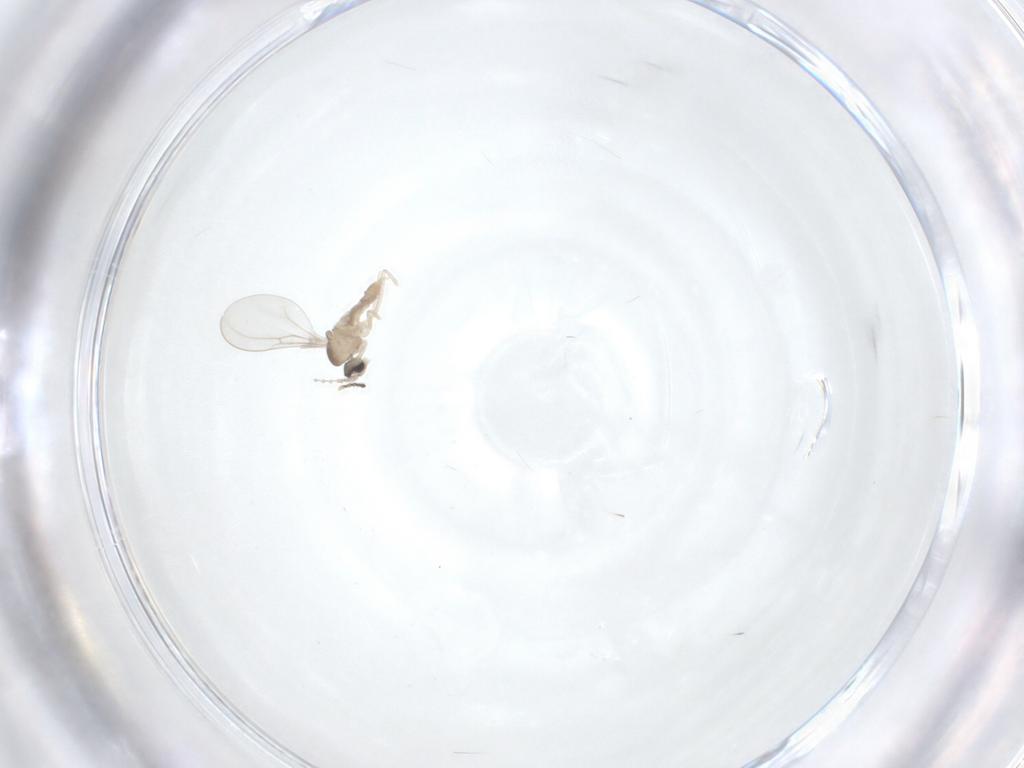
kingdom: Animalia
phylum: Arthropoda
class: Insecta
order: Diptera
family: Cecidomyiidae
